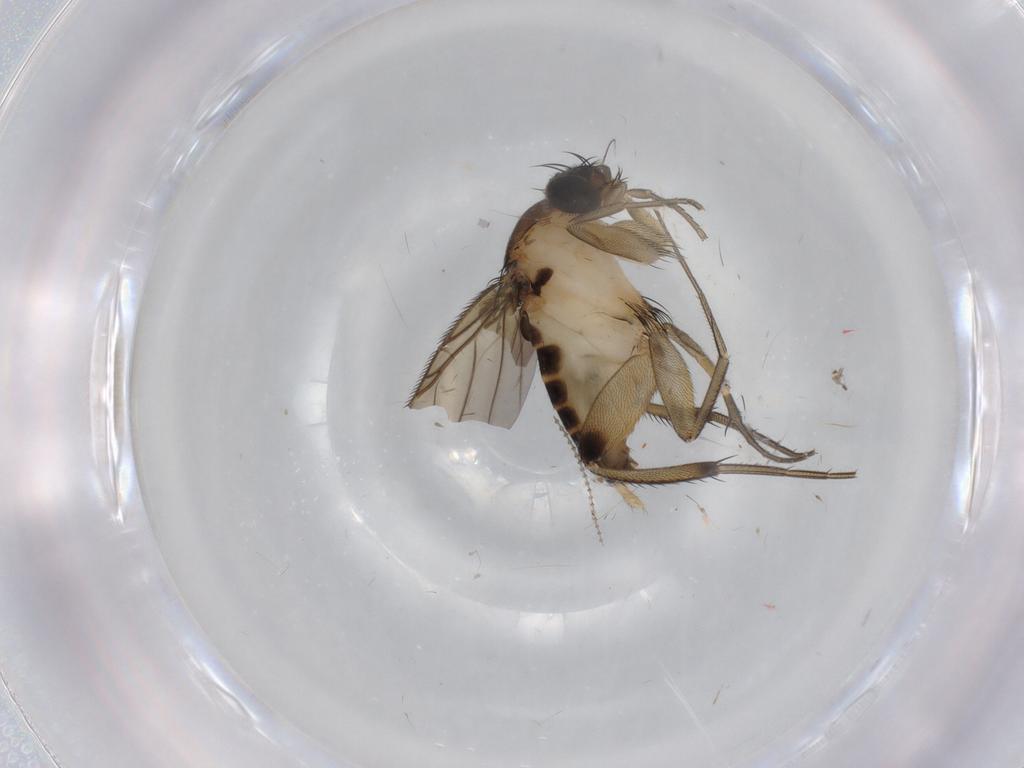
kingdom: Animalia
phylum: Arthropoda
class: Insecta
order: Diptera
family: Phoridae
